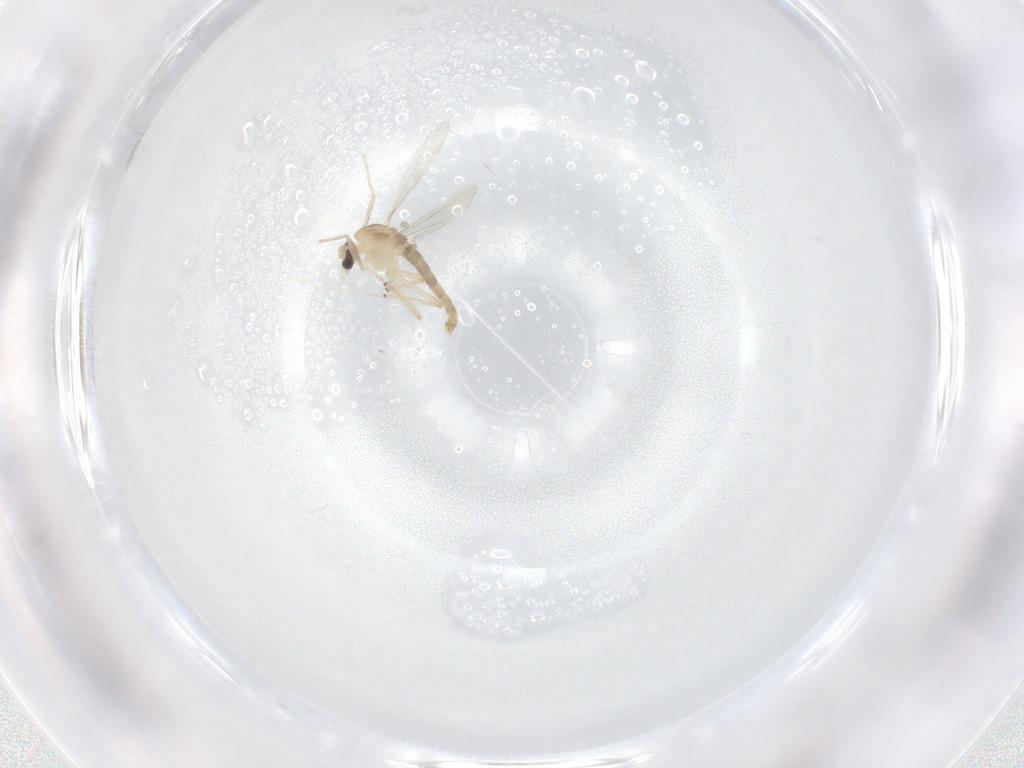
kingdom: Animalia
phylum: Arthropoda
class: Insecta
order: Diptera
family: Chironomidae
